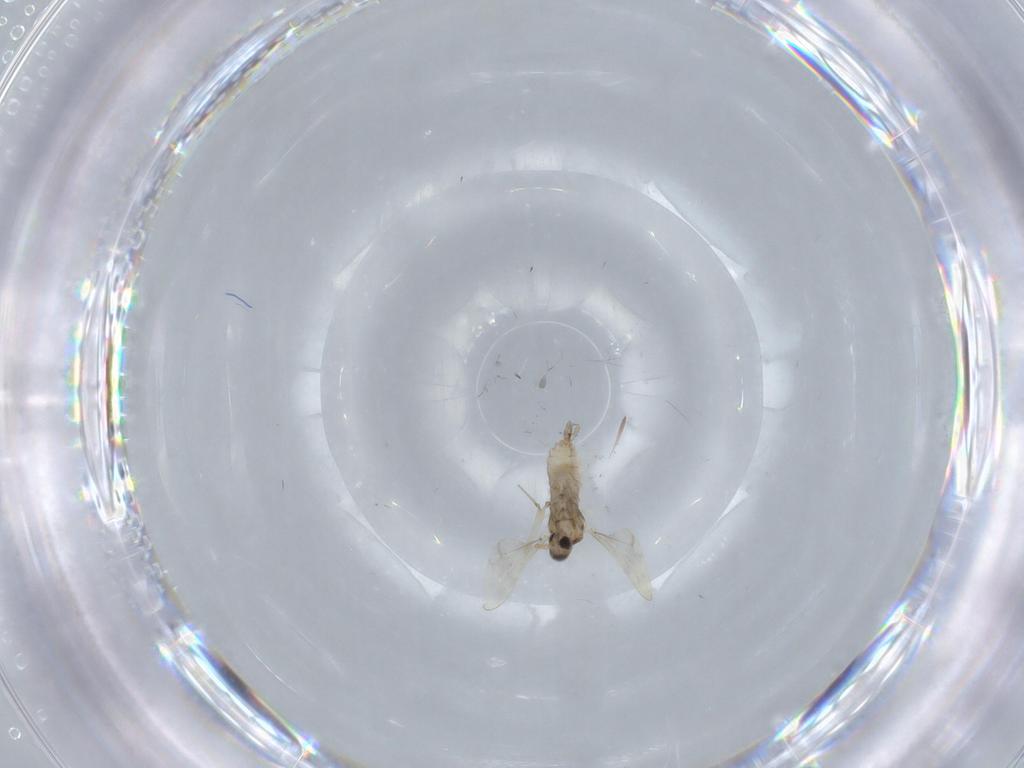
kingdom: Animalia
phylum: Arthropoda
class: Insecta
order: Diptera
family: Cecidomyiidae
